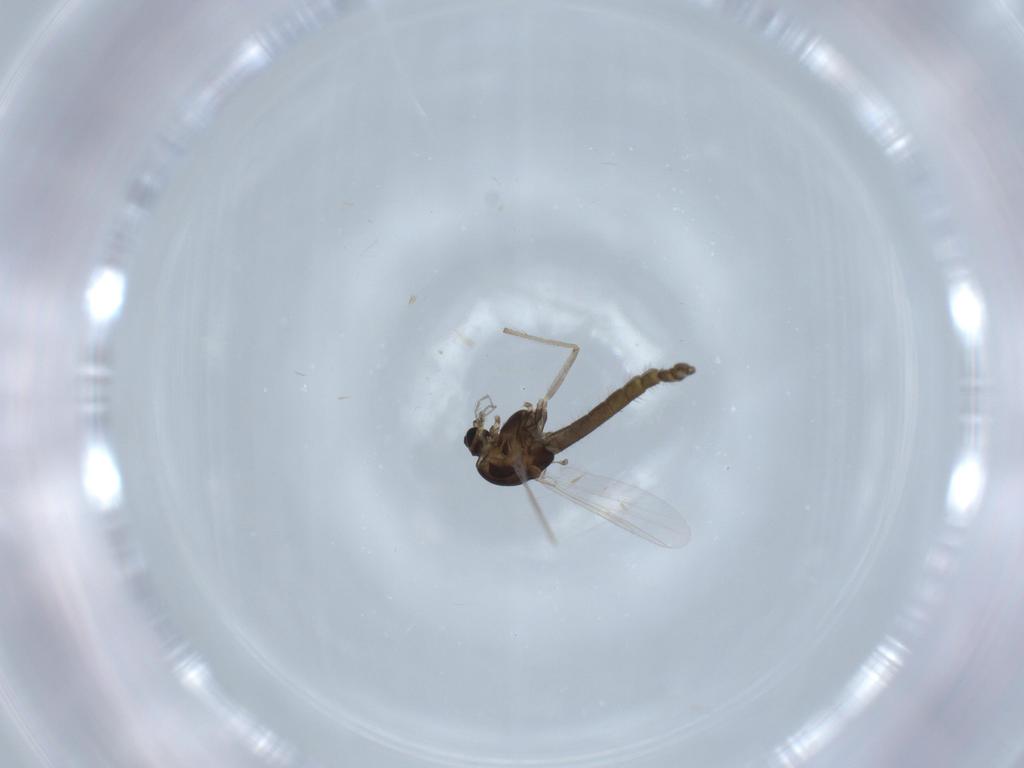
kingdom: Animalia
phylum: Arthropoda
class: Insecta
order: Diptera
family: Chironomidae
